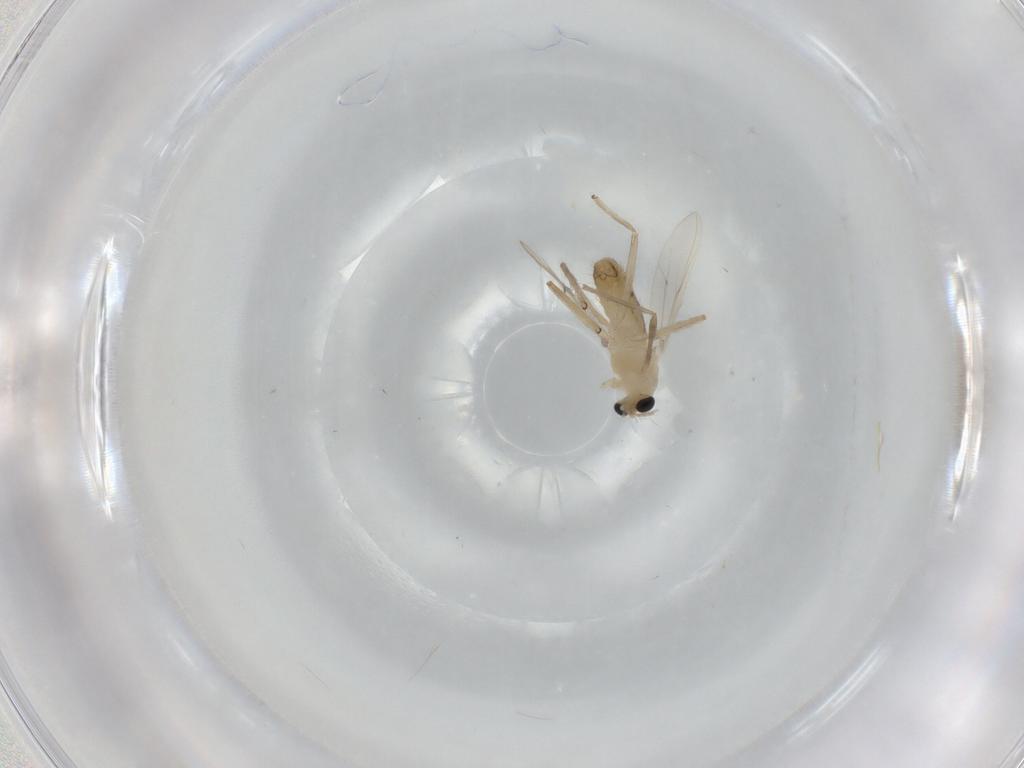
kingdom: Animalia
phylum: Arthropoda
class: Insecta
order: Diptera
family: Chironomidae
